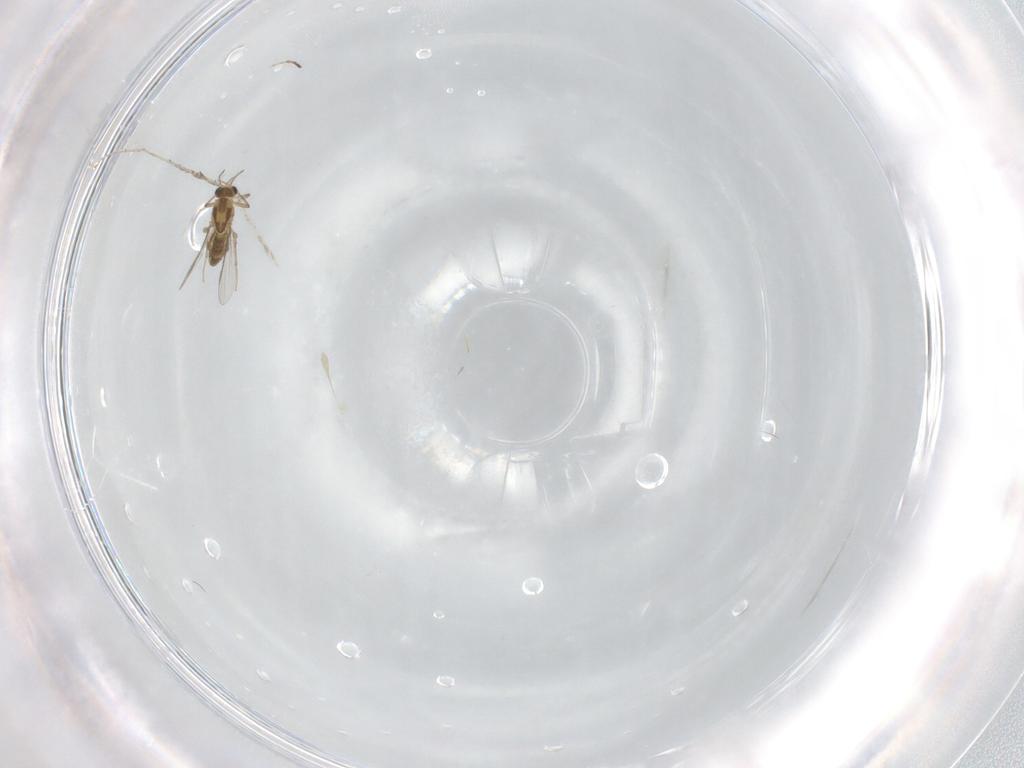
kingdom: Animalia
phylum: Arthropoda
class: Insecta
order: Diptera
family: Chironomidae
